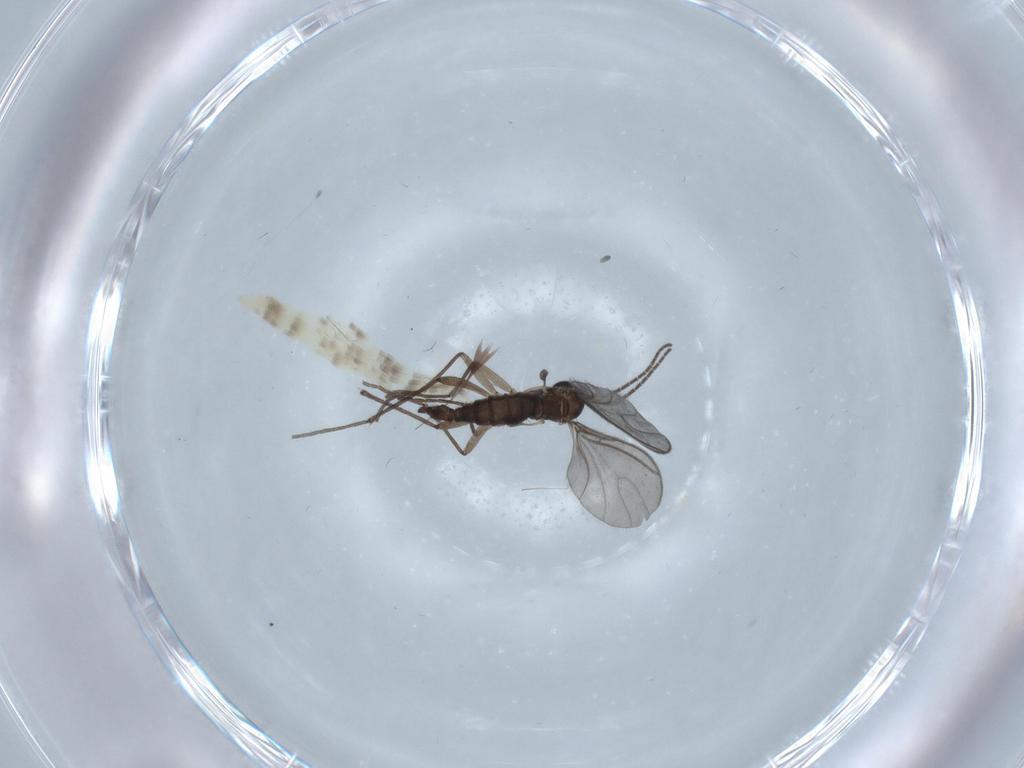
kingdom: Animalia
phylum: Arthropoda
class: Insecta
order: Diptera
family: Sciaridae
